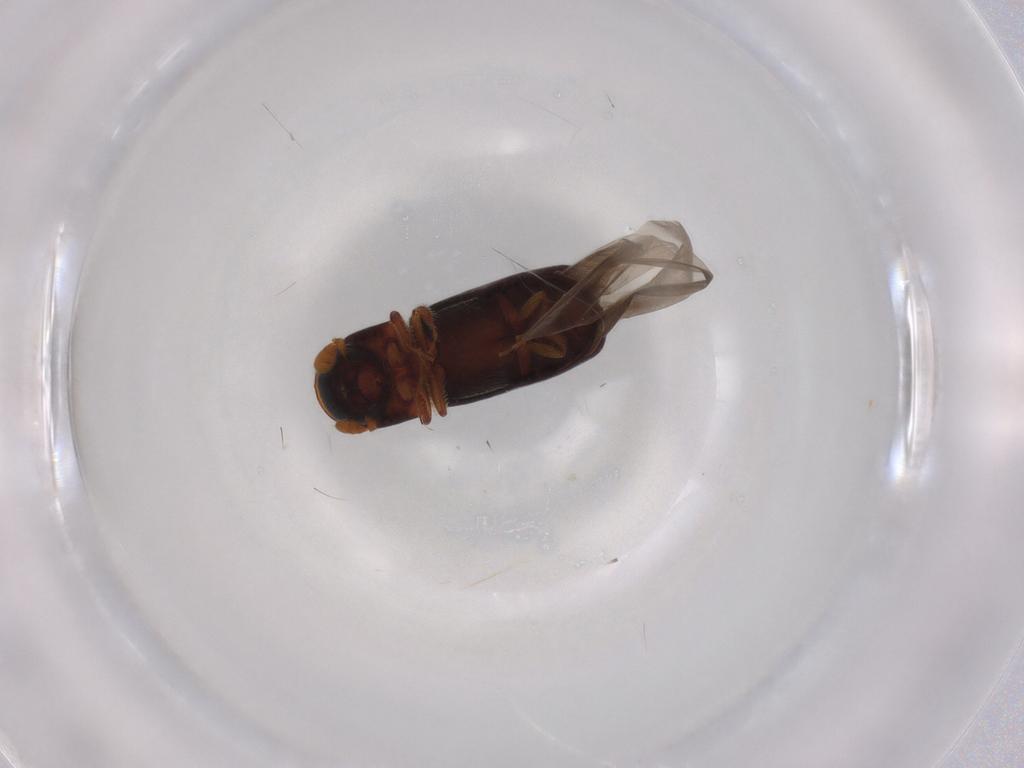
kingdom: Animalia
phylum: Arthropoda
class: Insecta
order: Coleoptera
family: Curculionidae
